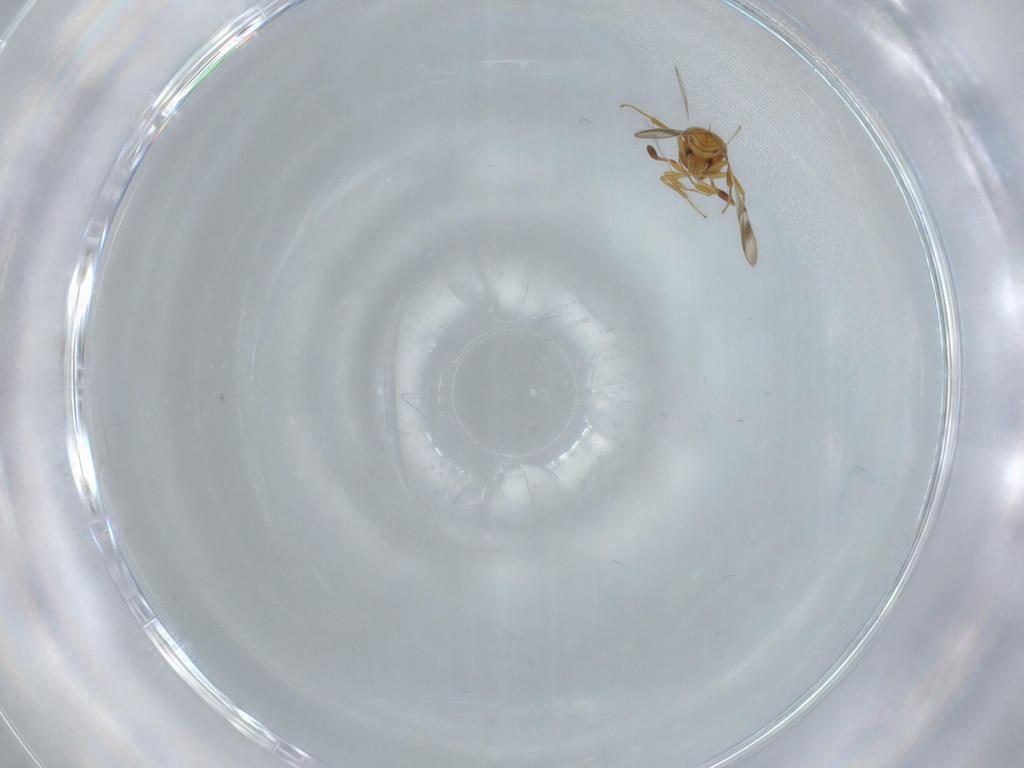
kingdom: Animalia
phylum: Arthropoda
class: Insecta
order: Hymenoptera
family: Scelionidae
